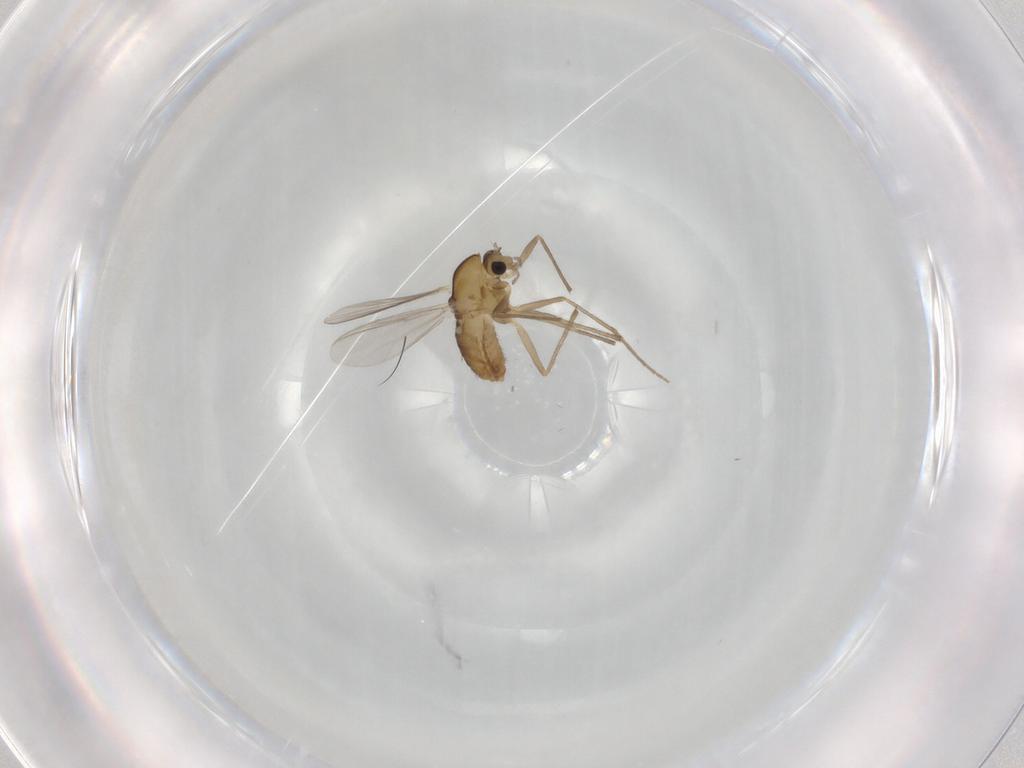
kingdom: Animalia
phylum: Arthropoda
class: Insecta
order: Diptera
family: Chironomidae
